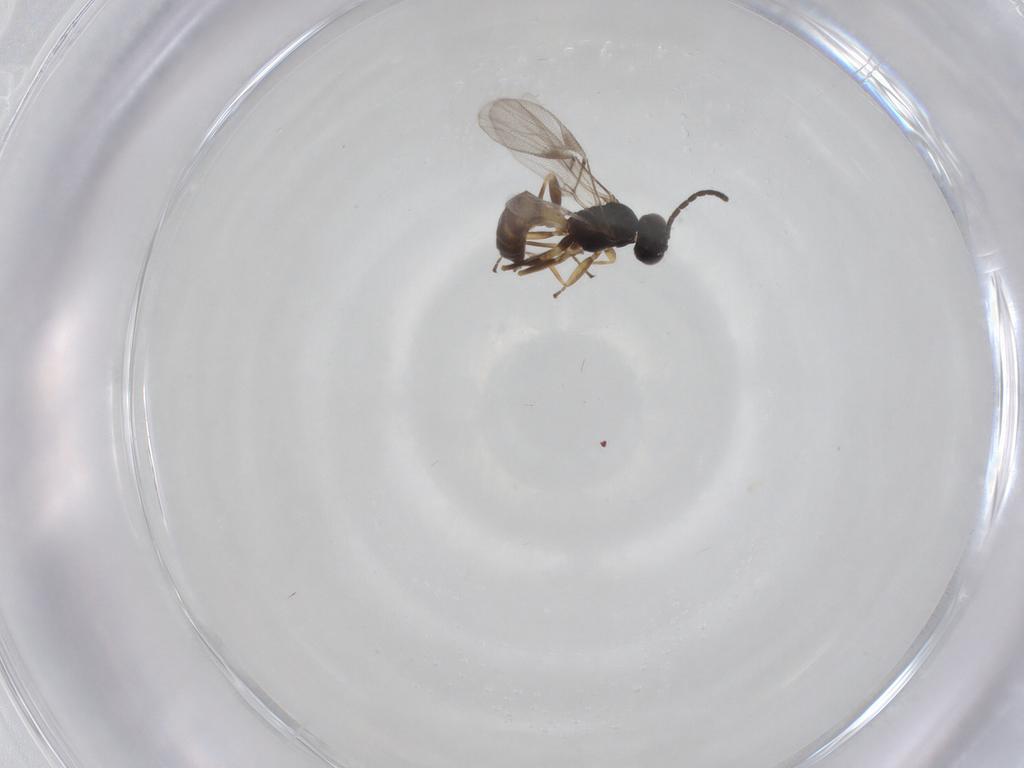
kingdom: Animalia
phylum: Arthropoda
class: Insecta
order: Hymenoptera
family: Braconidae
